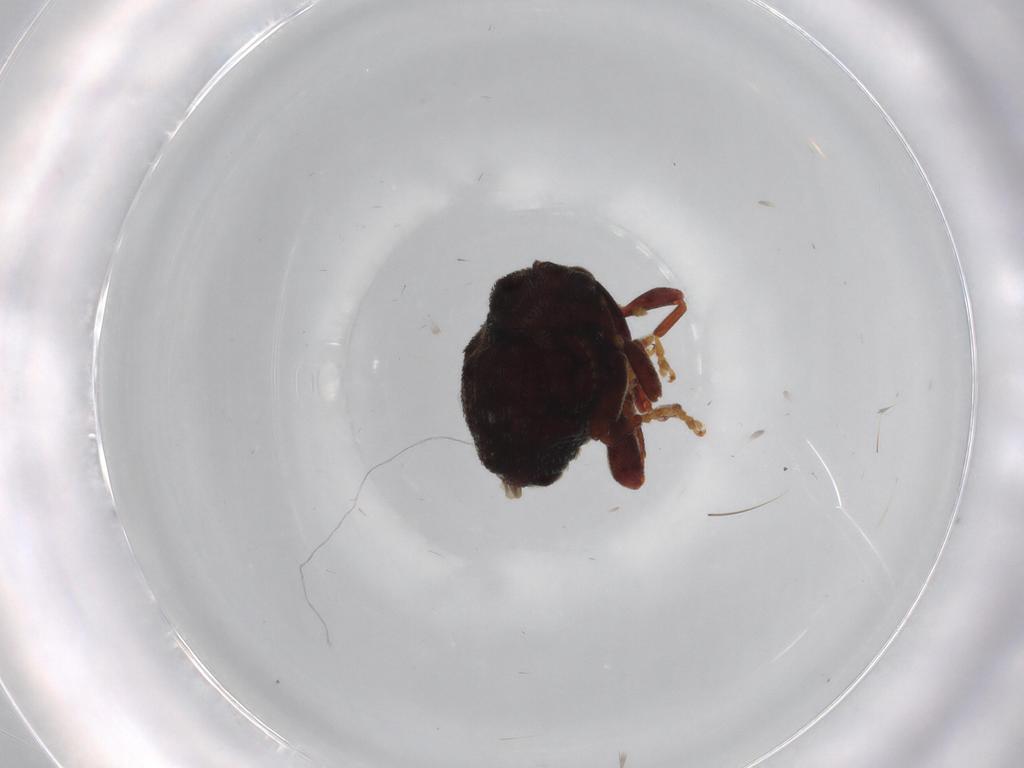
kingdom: Animalia
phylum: Arthropoda
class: Insecta
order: Coleoptera
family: Curculionidae
